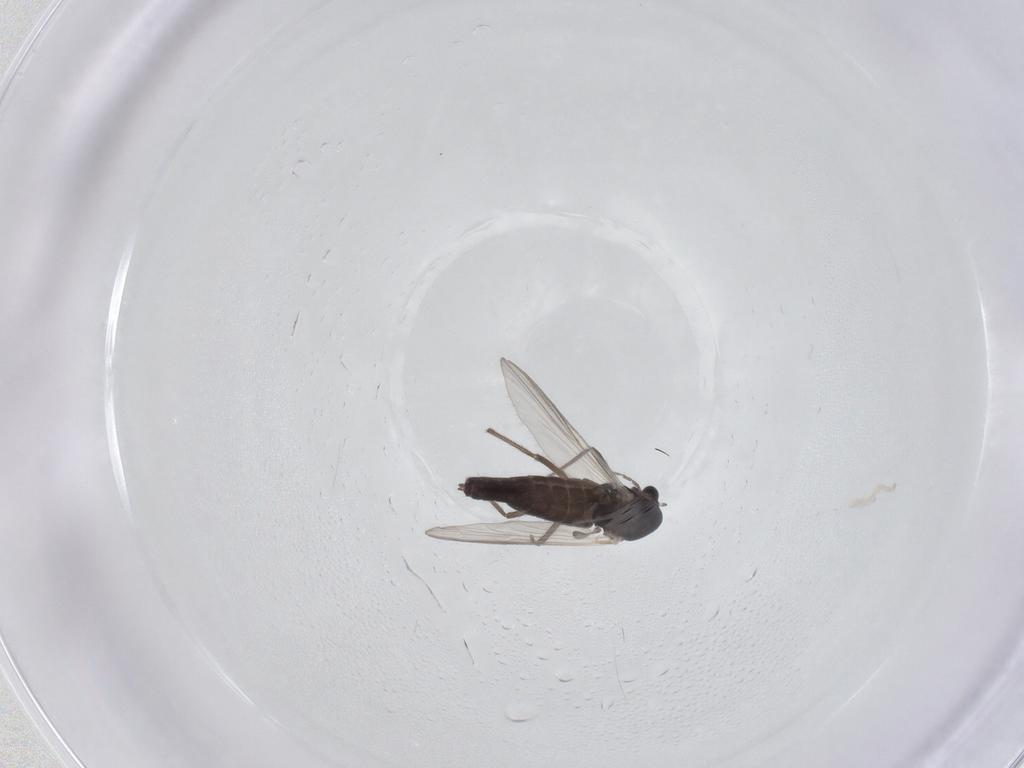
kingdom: Animalia
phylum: Arthropoda
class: Insecta
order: Diptera
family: Chironomidae
